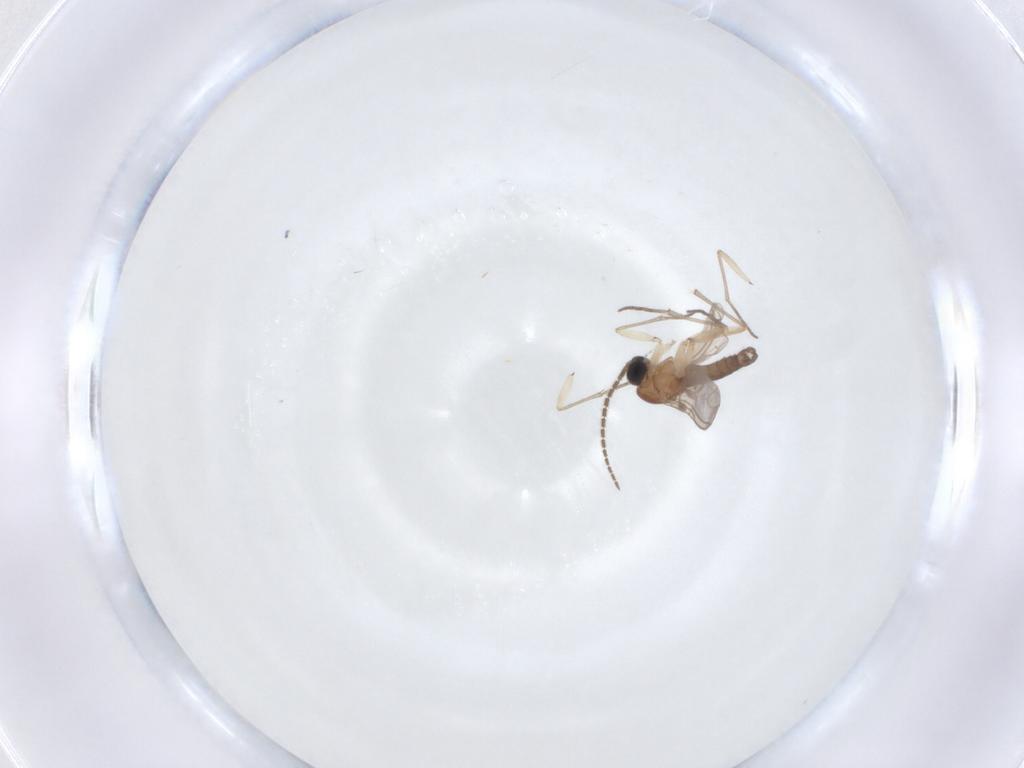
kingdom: Animalia
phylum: Arthropoda
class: Insecta
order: Diptera
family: Sciaridae
